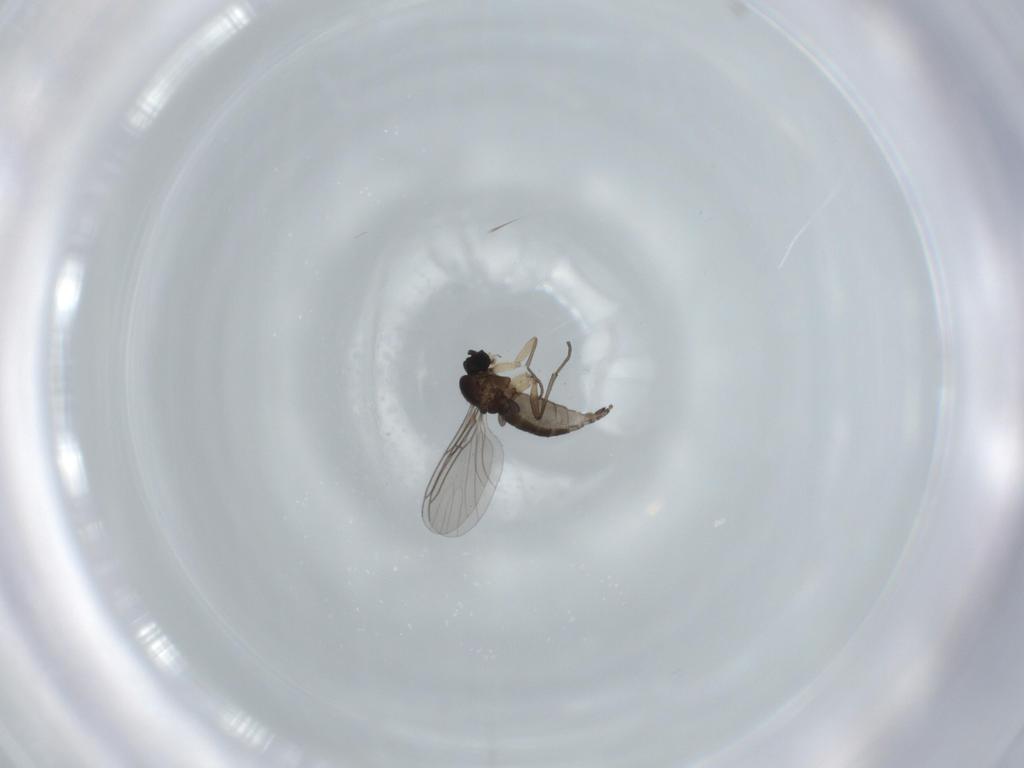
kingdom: Animalia
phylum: Arthropoda
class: Insecta
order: Diptera
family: Sciaridae
